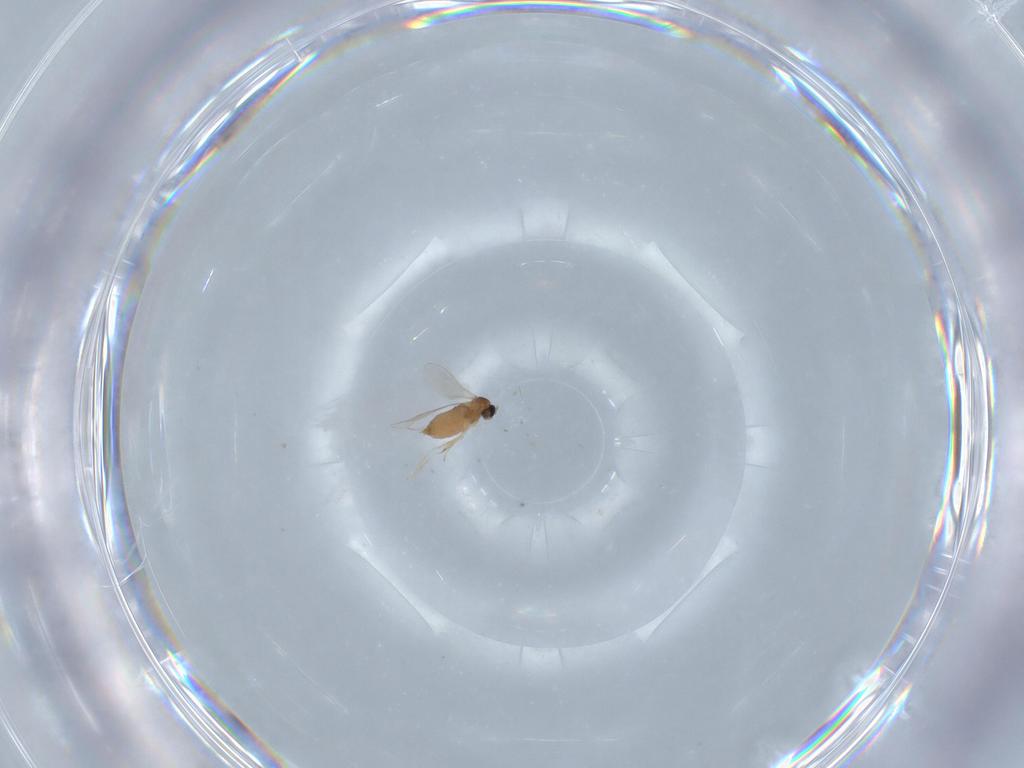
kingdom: Animalia
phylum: Arthropoda
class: Insecta
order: Diptera
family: Cecidomyiidae
